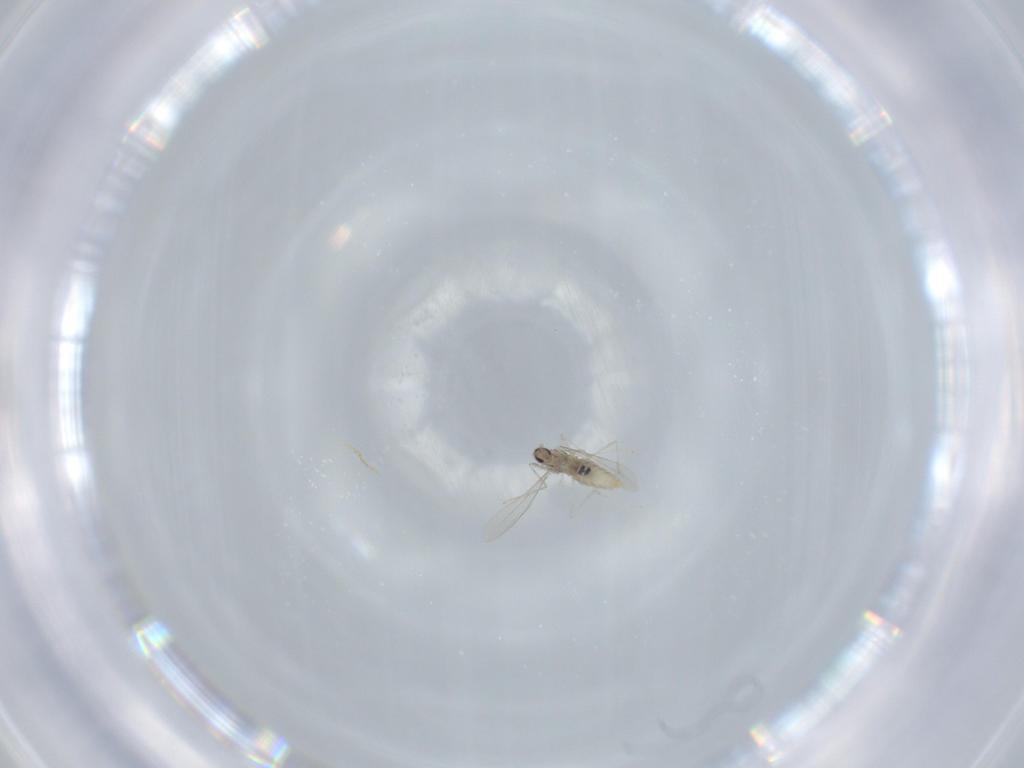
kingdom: Animalia
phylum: Arthropoda
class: Insecta
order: Diptera
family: Cecidomyiidae
